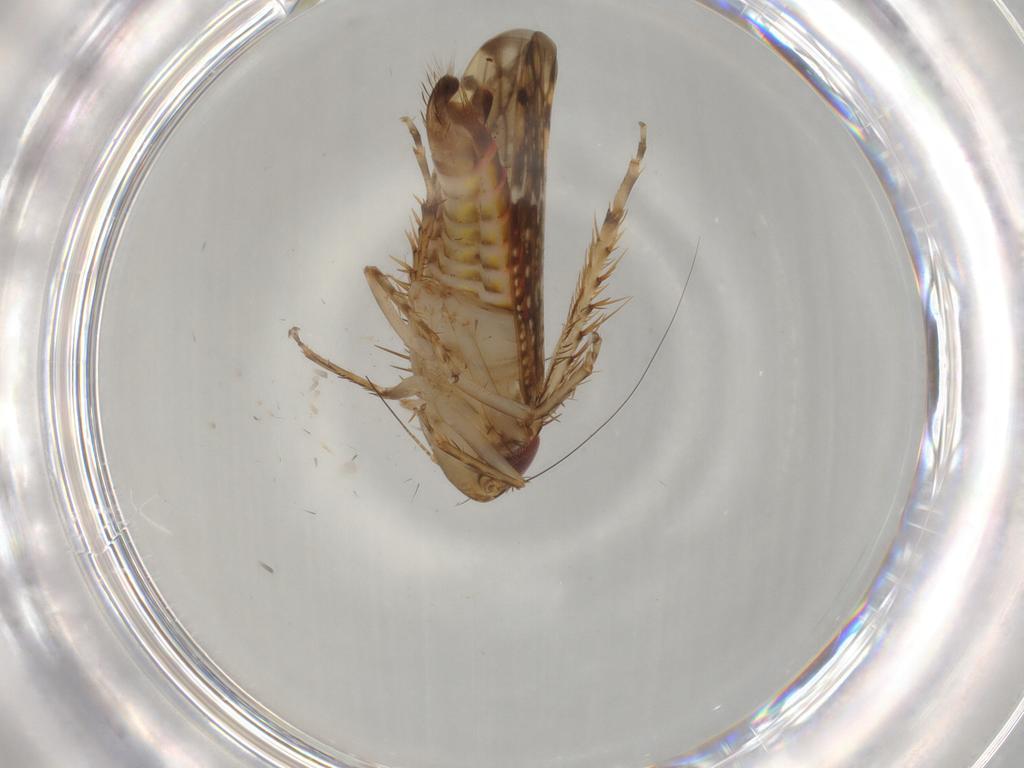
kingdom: Animalia
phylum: Arthropoda
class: Insecta
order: Hemiptera
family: Cicadellidae
